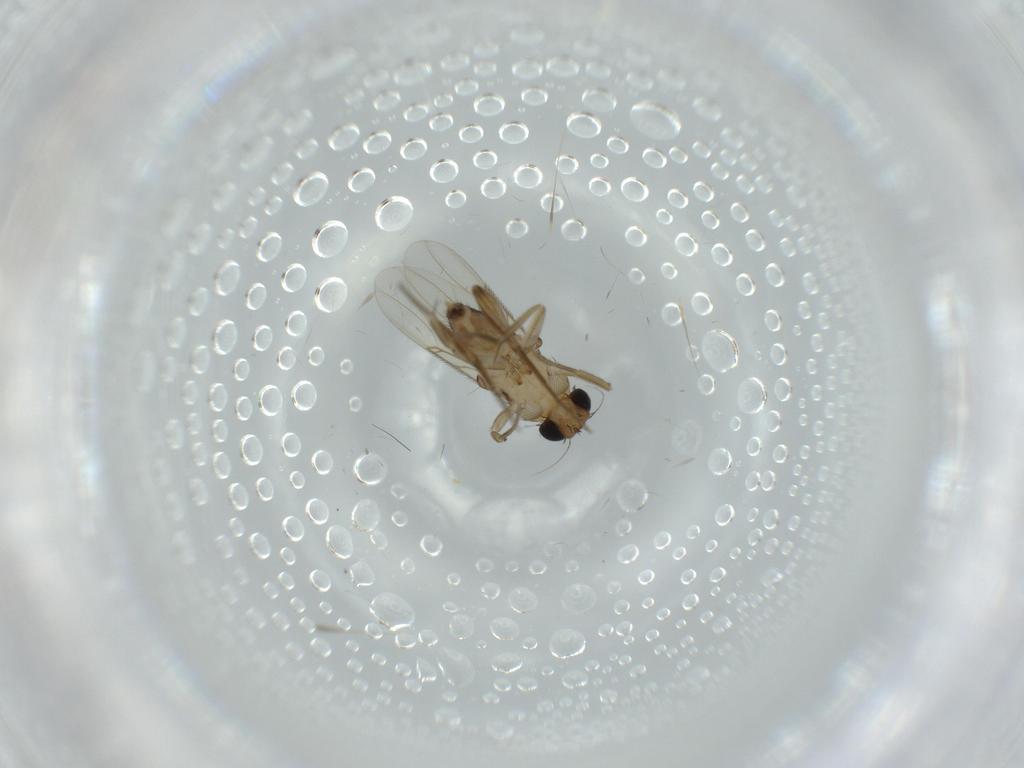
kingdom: Animalia
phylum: Arthropoda
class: Insecta
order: Diptera
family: Phoridae
